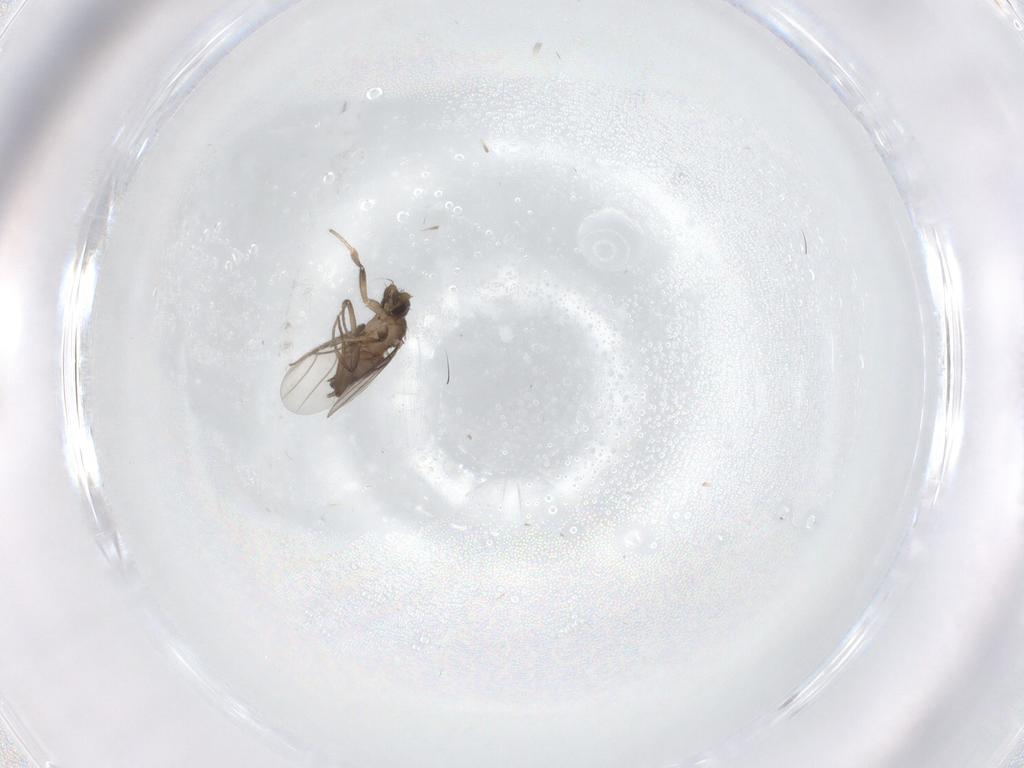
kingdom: Animalia
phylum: Arthropoda
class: Insecta
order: Diptera
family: Phoridae
